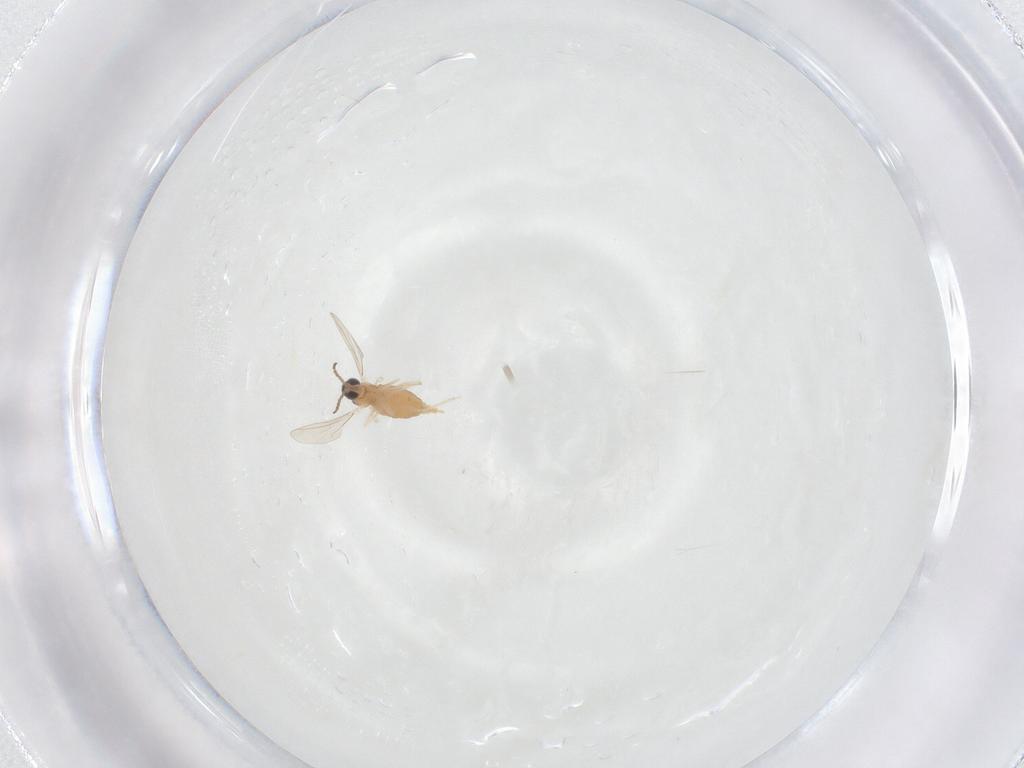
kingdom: Animalia
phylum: Arthropoda
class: Insecta
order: Diptera
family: Cecidomyiidae
